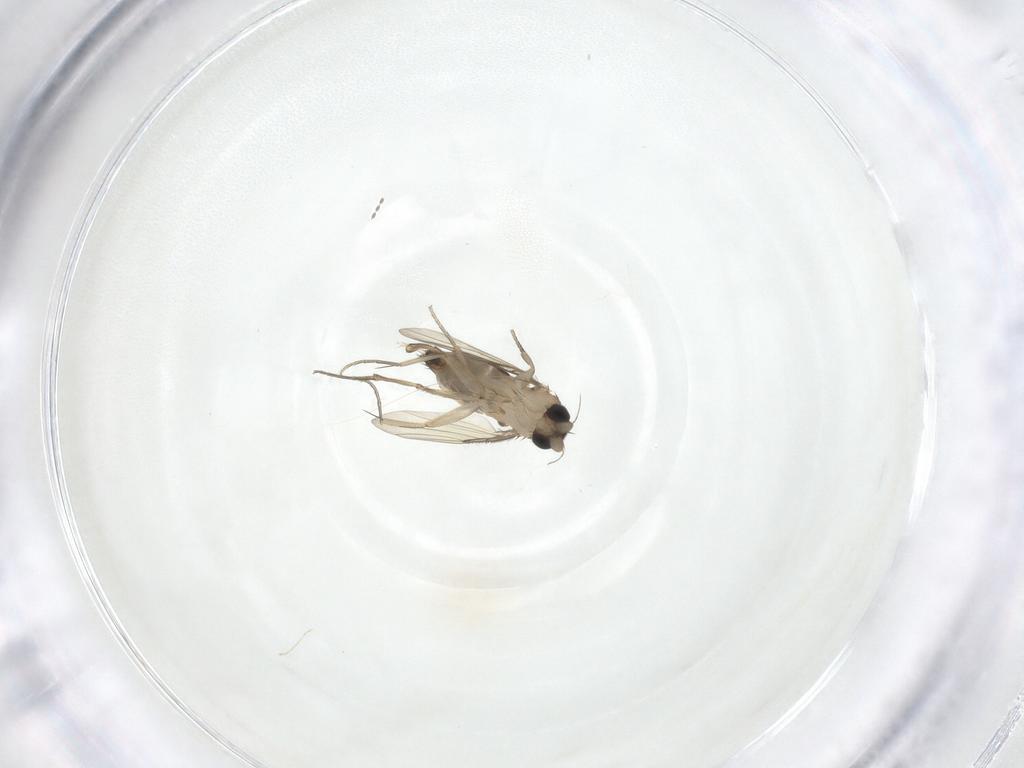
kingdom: Animalia
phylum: Arthropoda
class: Insecta
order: Diptera
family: Phoridae
